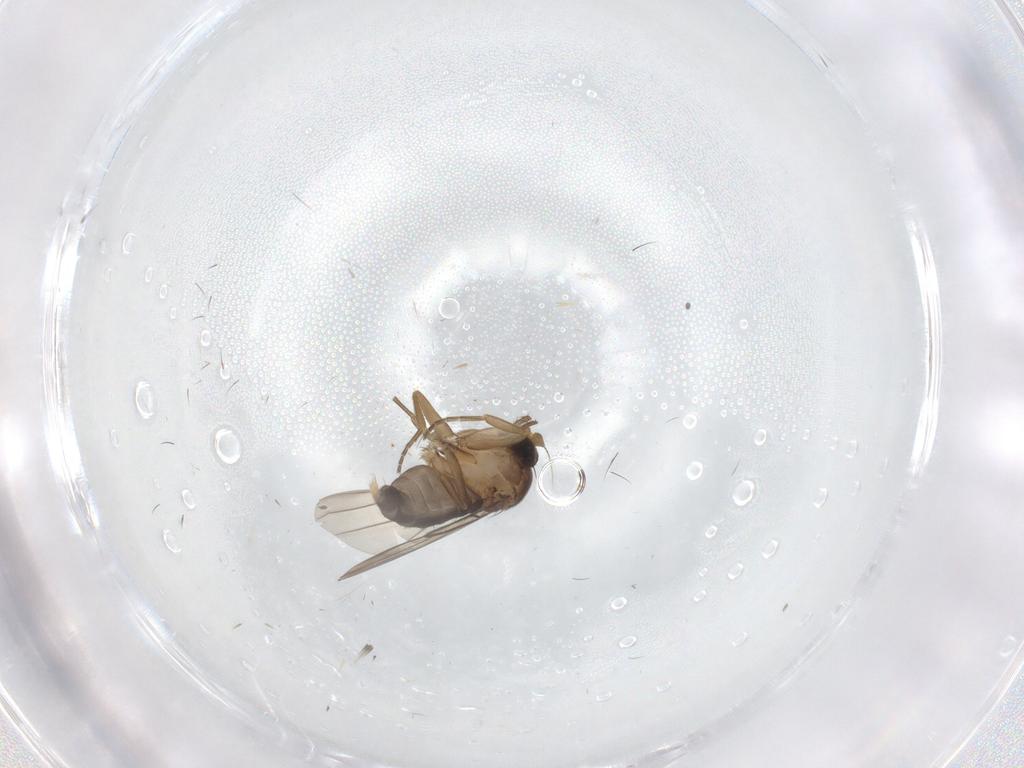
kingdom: Animalia
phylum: Arthropoda
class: Insecta
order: Diptera
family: Phoridae
